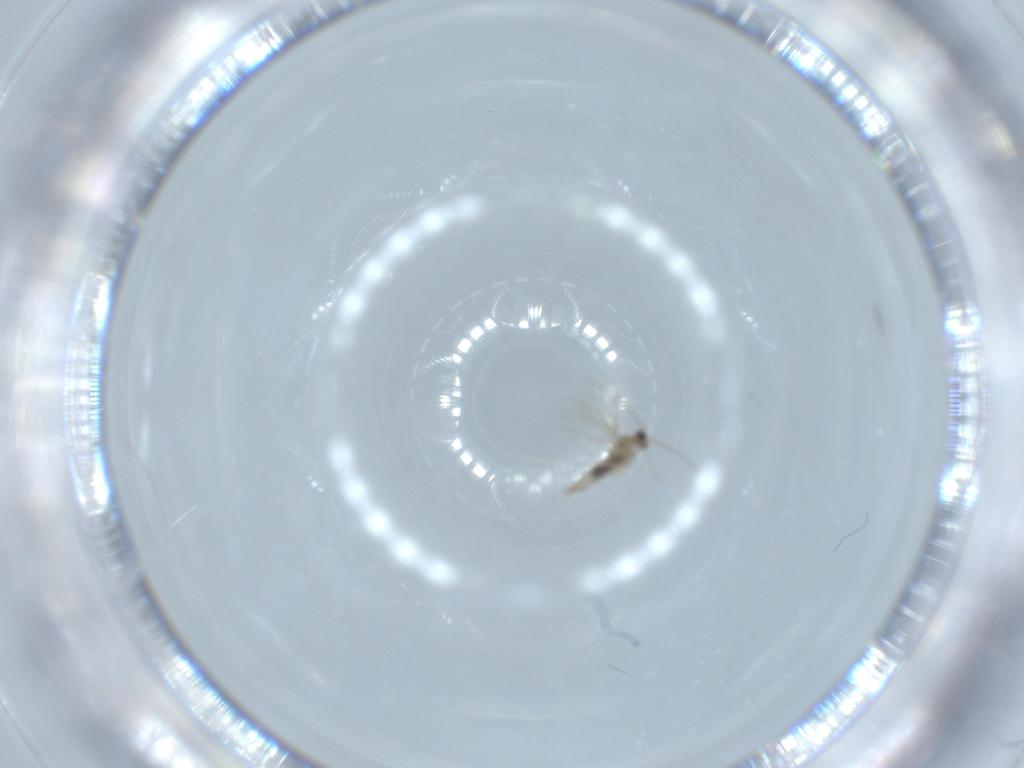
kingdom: Animalia
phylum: Arthropoda
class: Insecta
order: Diptera
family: Cecidomyiidae
